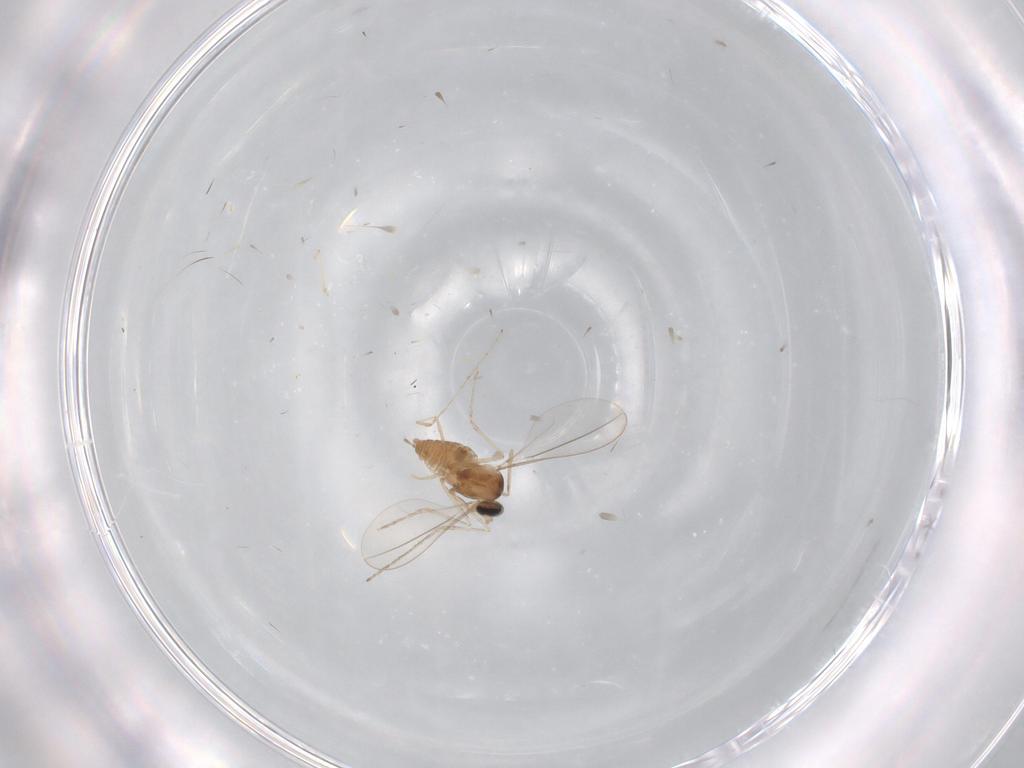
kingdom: Animalia
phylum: Arthropoda
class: Insecta
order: Diptera
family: Cecidomyiidae
